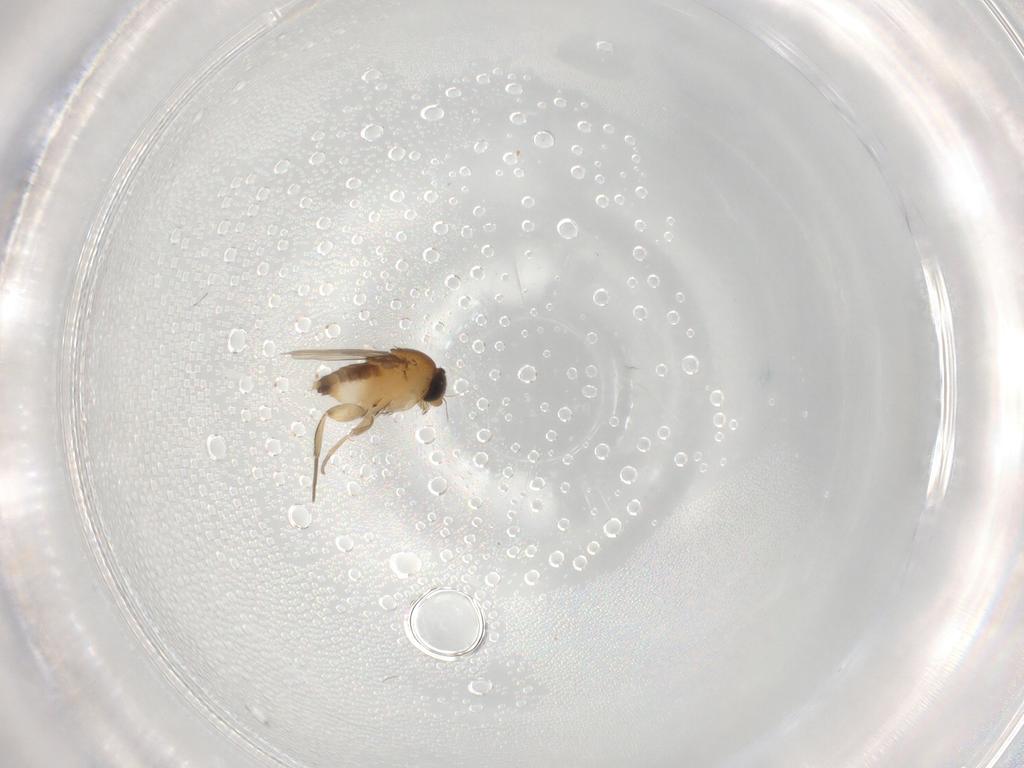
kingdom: Animalia
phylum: Arthropoda
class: Insecta
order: Diptera
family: Phoridae
